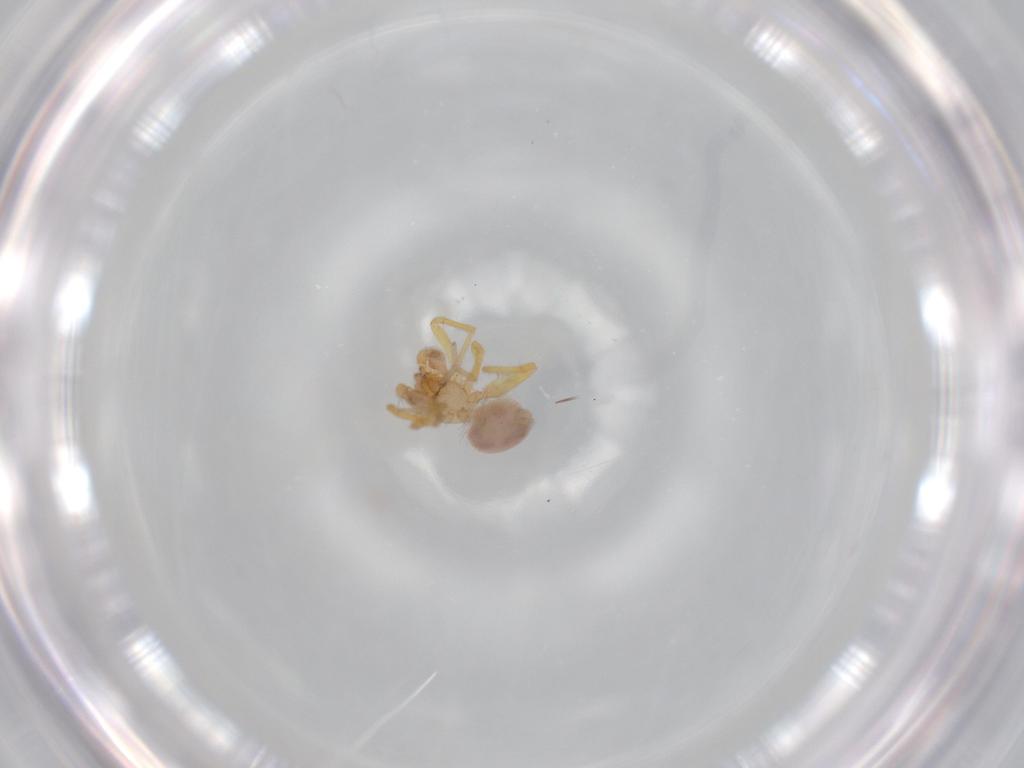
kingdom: Animalia
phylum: Arthropoda
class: Arachnida
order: Araneae
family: Oonopidae
